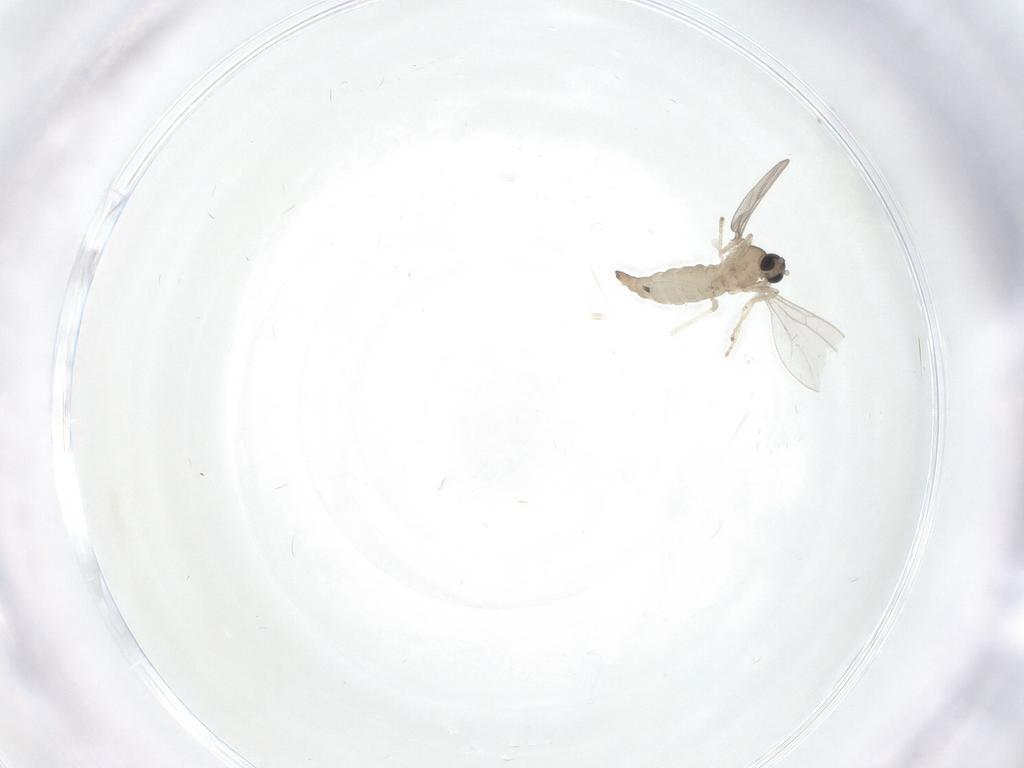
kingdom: Animalia
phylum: Arthropoda
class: Insecta
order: Diptera
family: Cecidomyiidae
